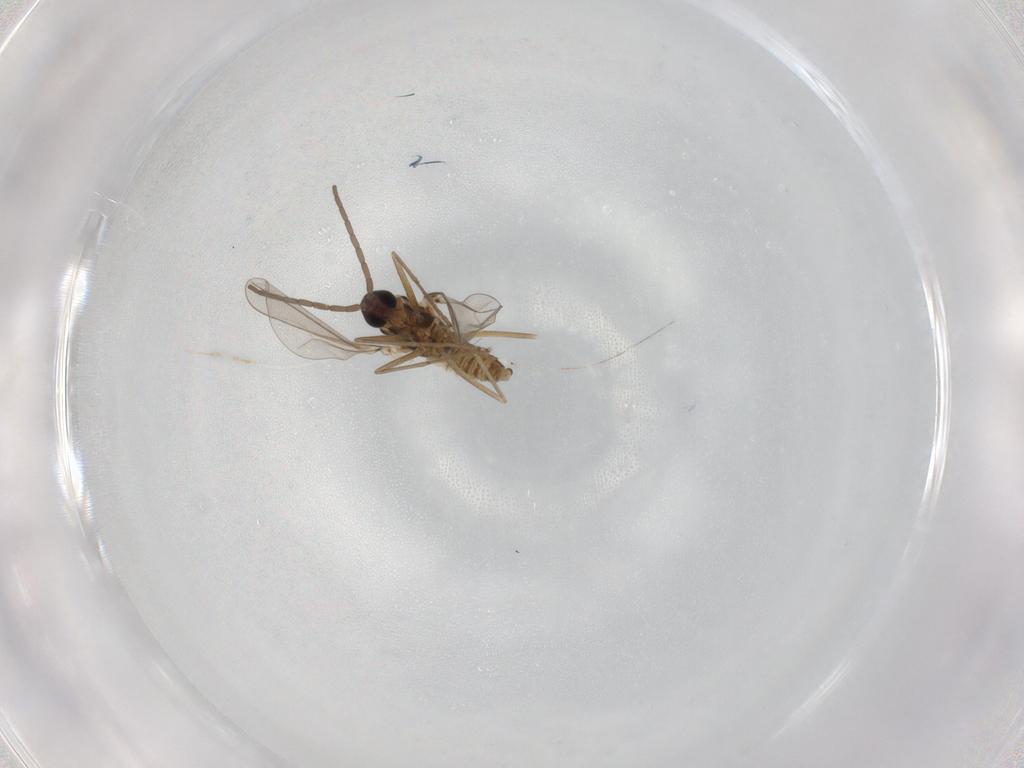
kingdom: Animalia
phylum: Arthropoda
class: Insecta
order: Diptera
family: Cecidomyiidae
